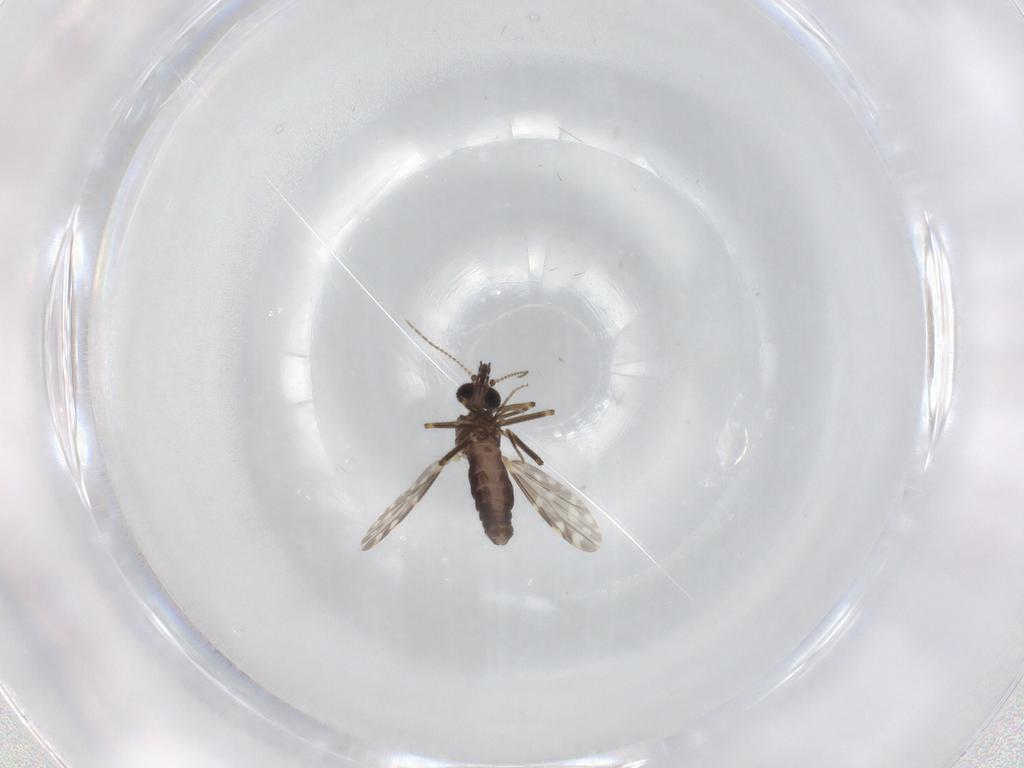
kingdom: Animalia
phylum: Arthropoda
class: Insecta
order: Diptera
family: Ceratopogonidae
